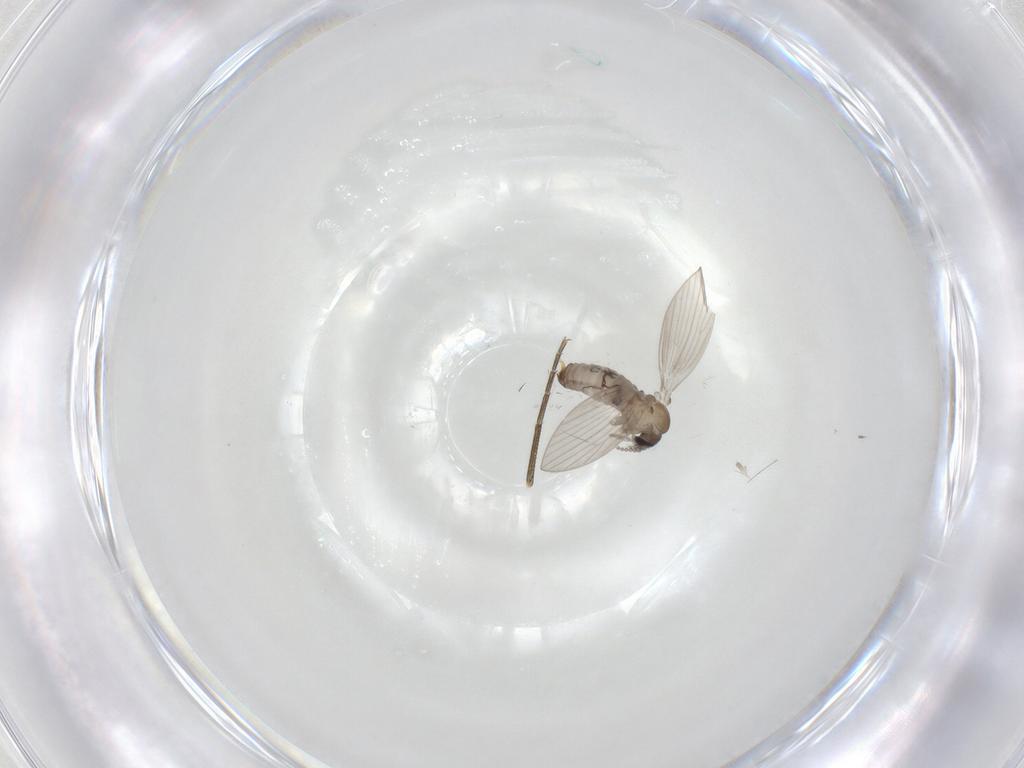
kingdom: Animalia
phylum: Arthropoda
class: Insecta
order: Diptera
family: Psychodidae
